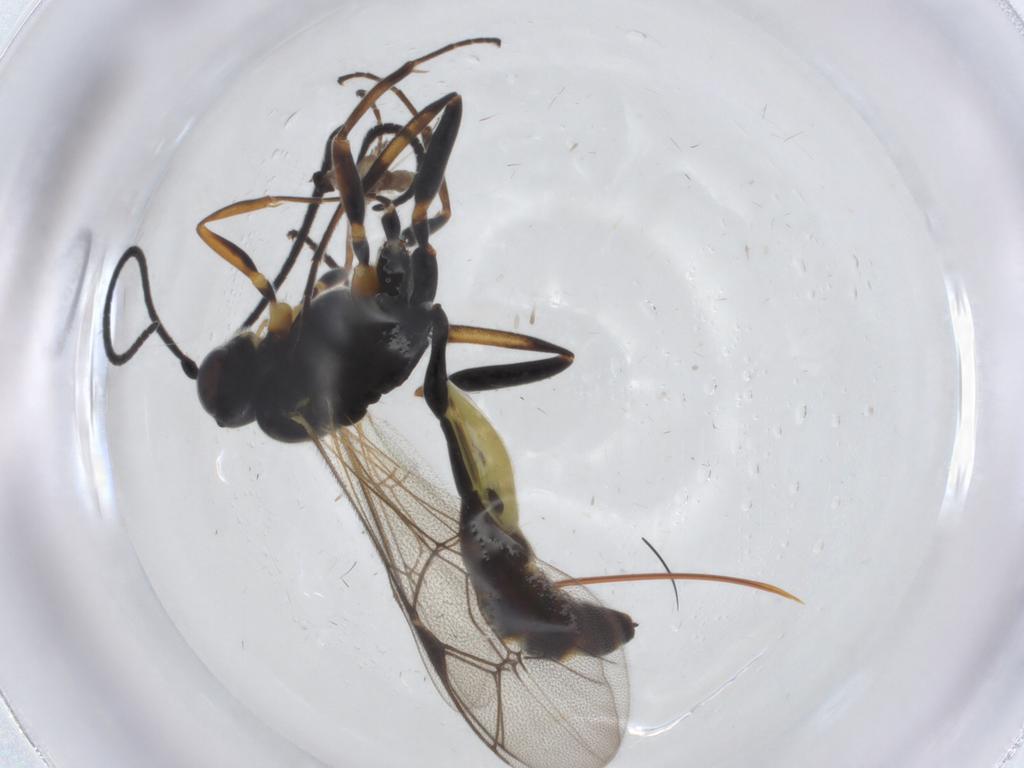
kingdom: Animalia
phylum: Arthropoda
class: Insecta
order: Hymenoptera
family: Ichneumonidae
